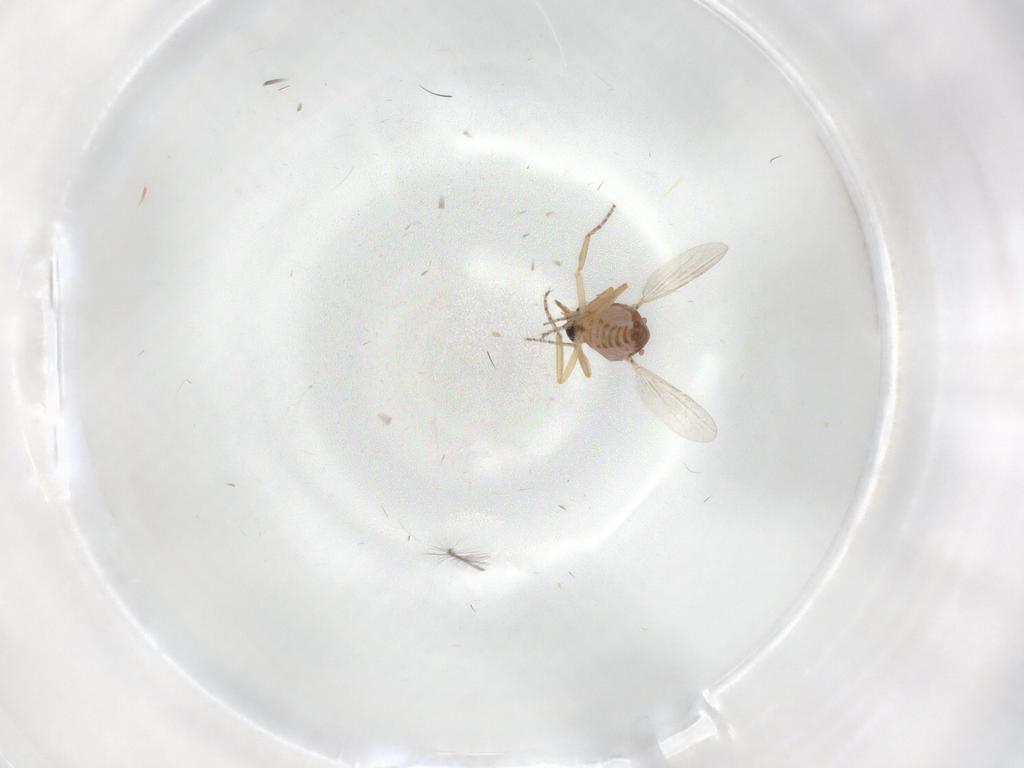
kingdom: Animalia
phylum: Arthropoda
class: Insecta
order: Diptera
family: Ceratopogonidae
